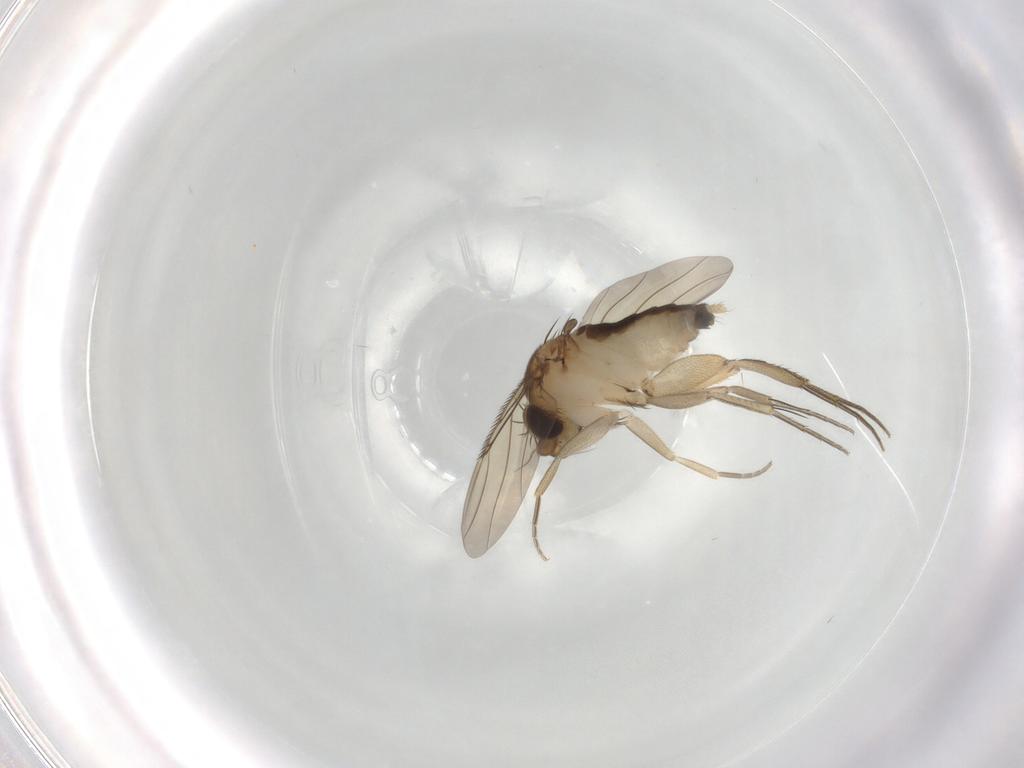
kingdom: Animalia
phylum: Arthropoda
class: Insecta
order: Diptera
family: Phoridae
